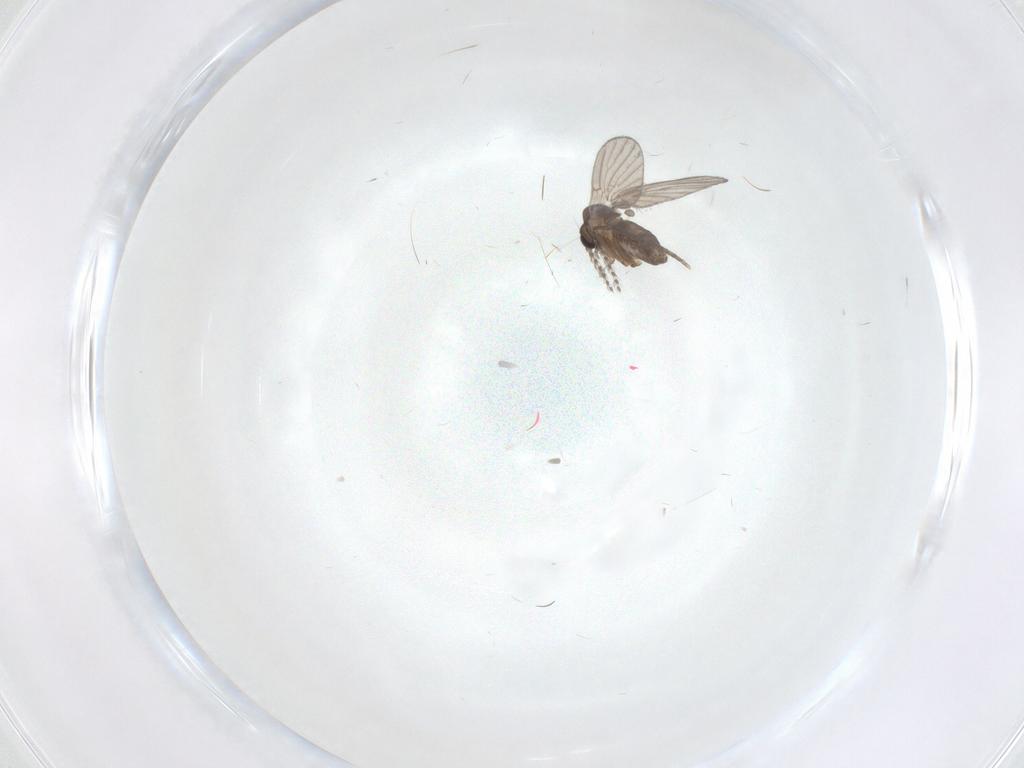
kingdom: Animalia
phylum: Arthropoda
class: Insecta
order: Diptera
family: Psychodidae
